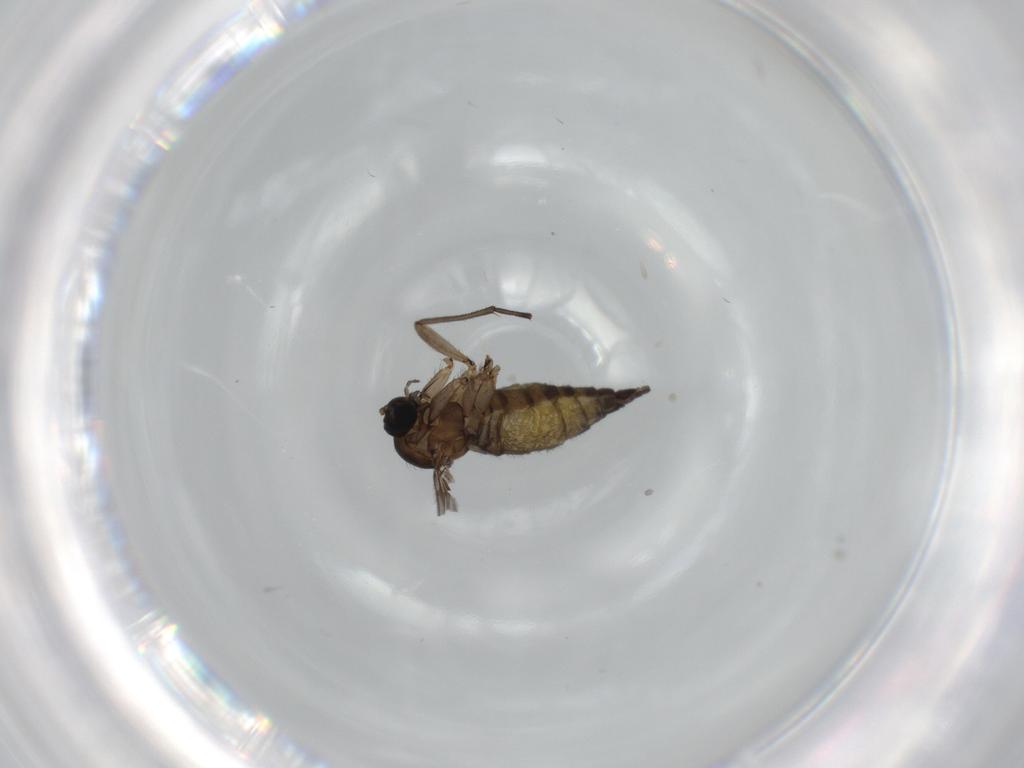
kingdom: Animalia
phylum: Arthropoda
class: Insecta
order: Diptera
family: Sciaridae
